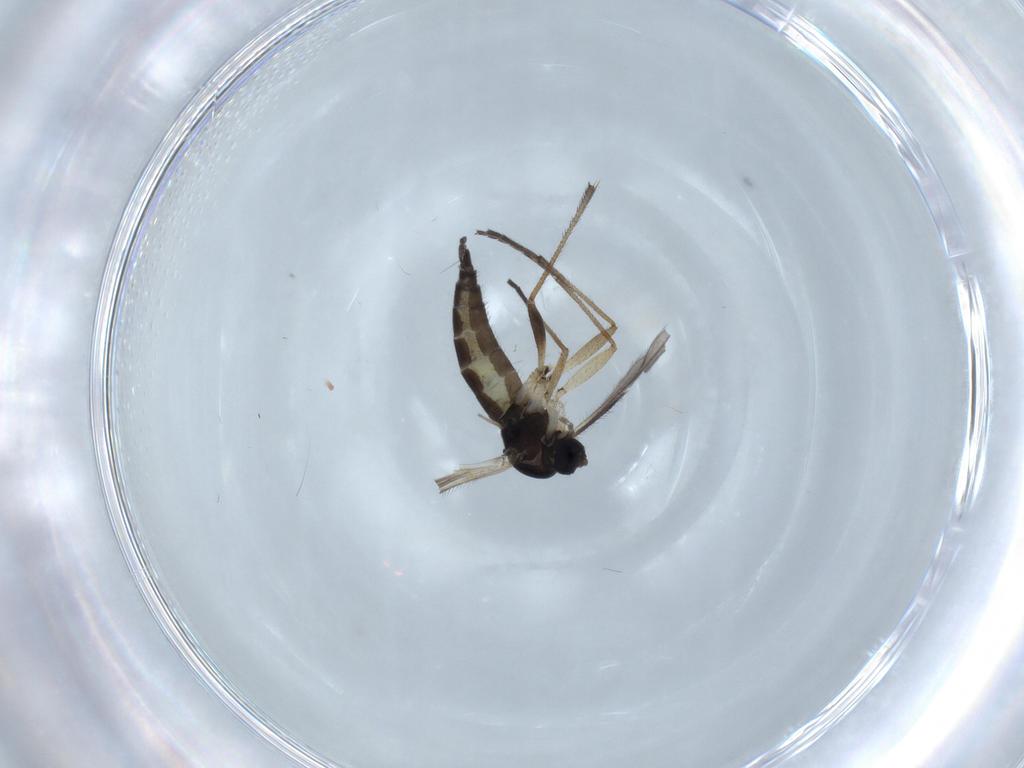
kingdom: Animalia
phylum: Arthropoda
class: Insecta
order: Diptera
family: Sciaridae
